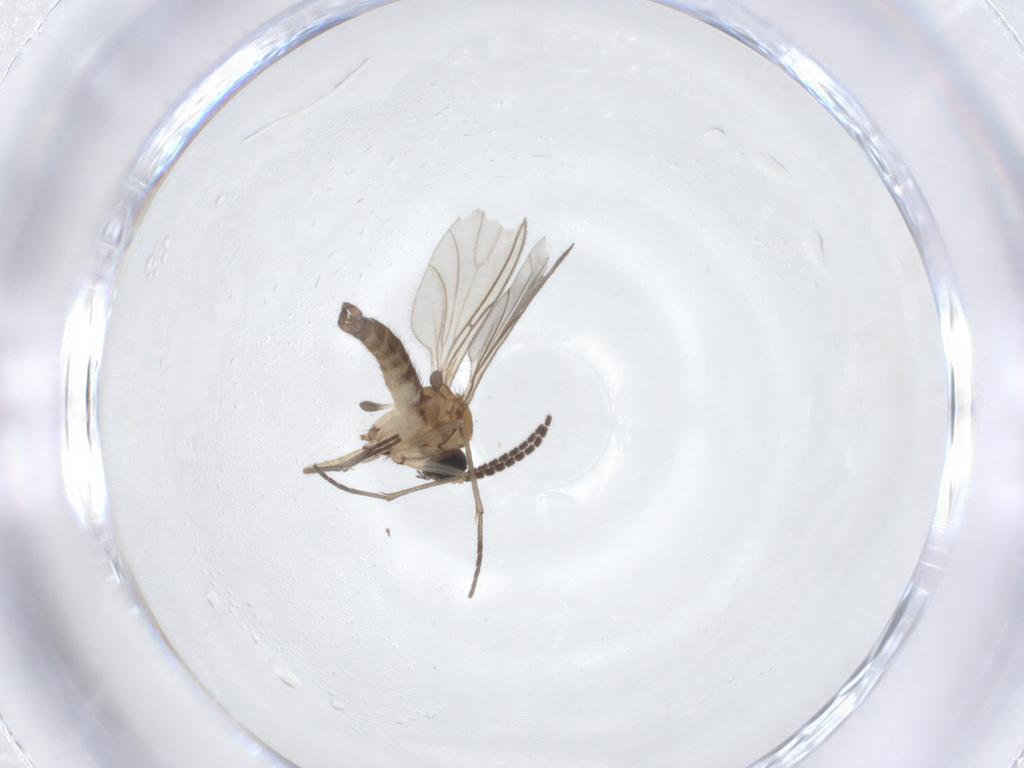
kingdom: Animalia
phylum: Arthropoda
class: Insecta
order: Diptera
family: Sciaridae
